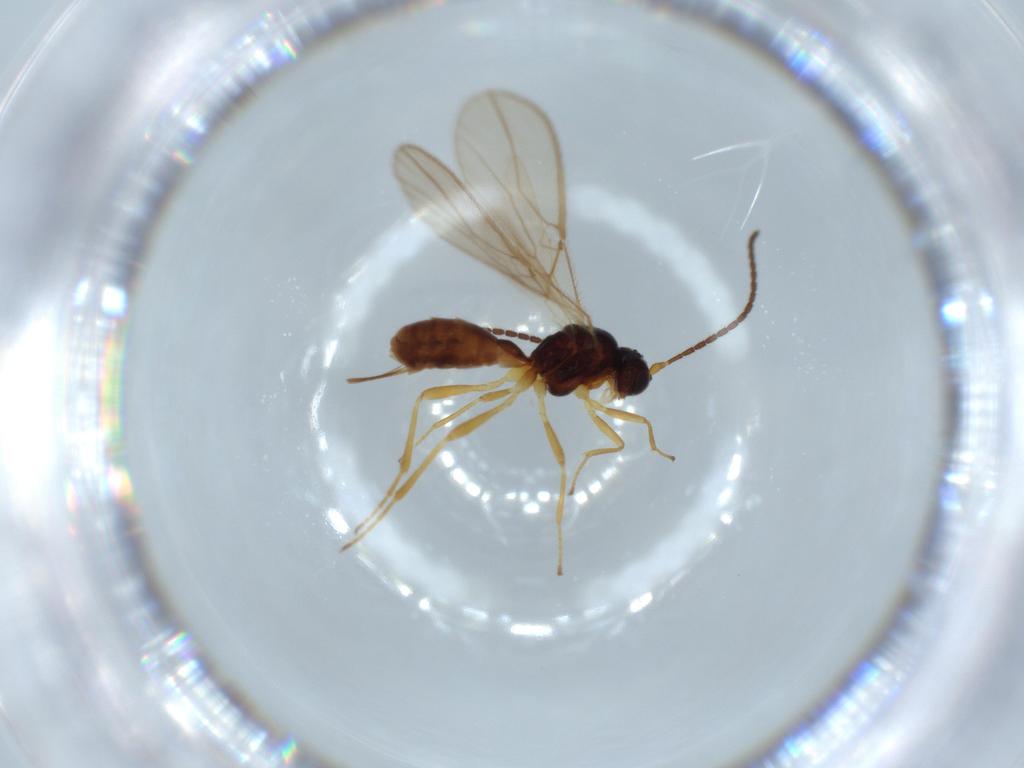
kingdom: Animalia
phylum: Arthropoda
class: Insecta
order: Hymenoptera
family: Braconidae
